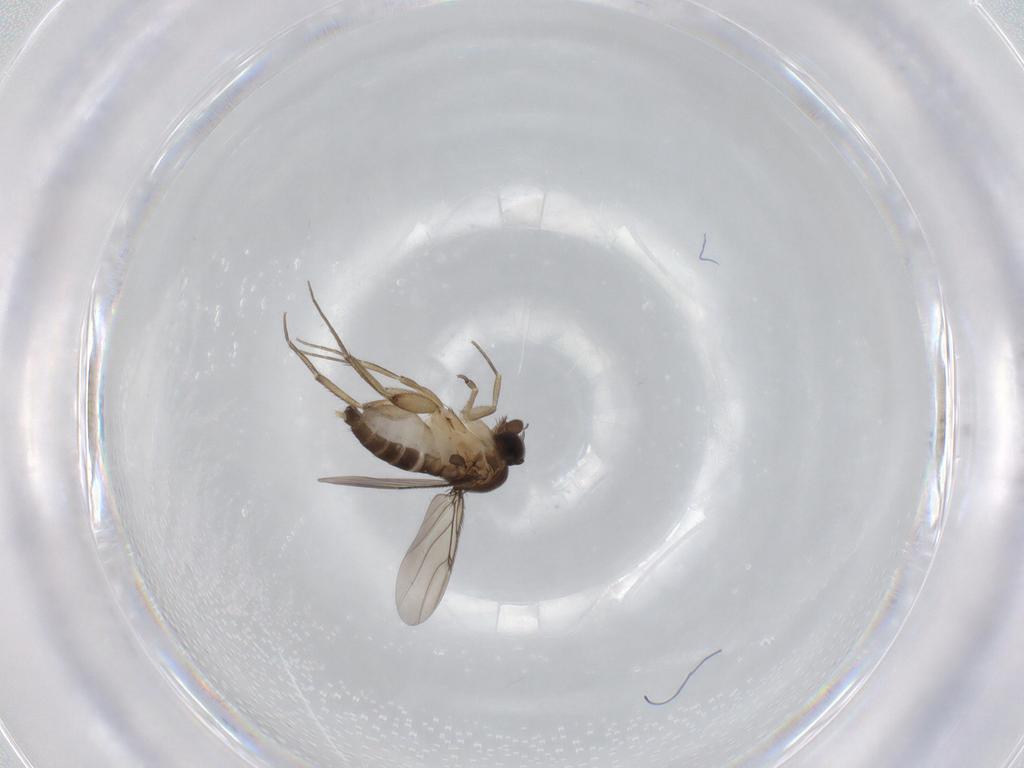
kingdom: Animalia
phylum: Arthropoda
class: Insecta
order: Diptera
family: Phoridae
